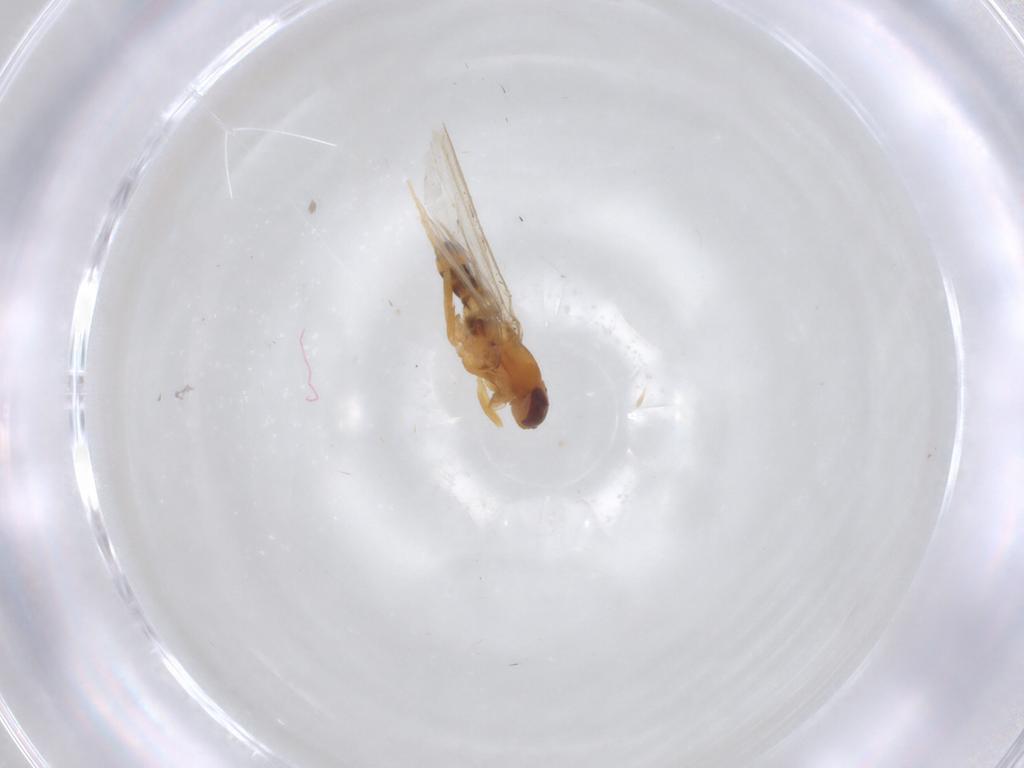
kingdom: Animalia
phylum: Arthropoda
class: Insecta
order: Diptera
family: Periscelididae
